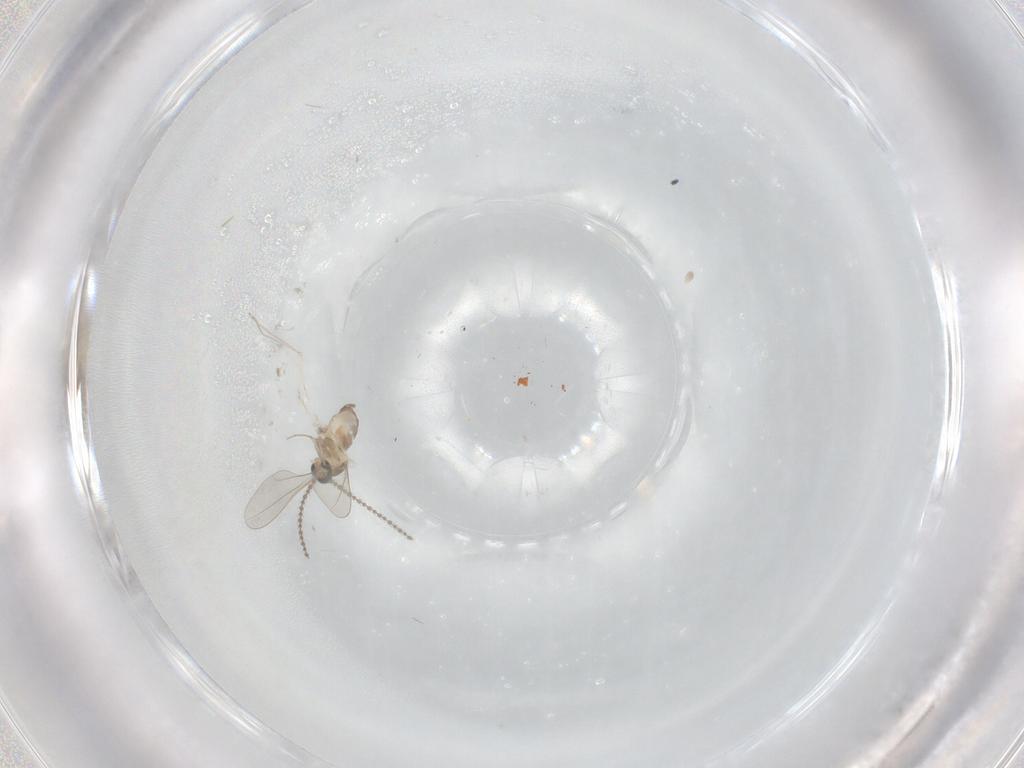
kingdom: Animalia
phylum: Arthropoda
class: Insecta
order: Diptera
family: Cecidomyiidae
